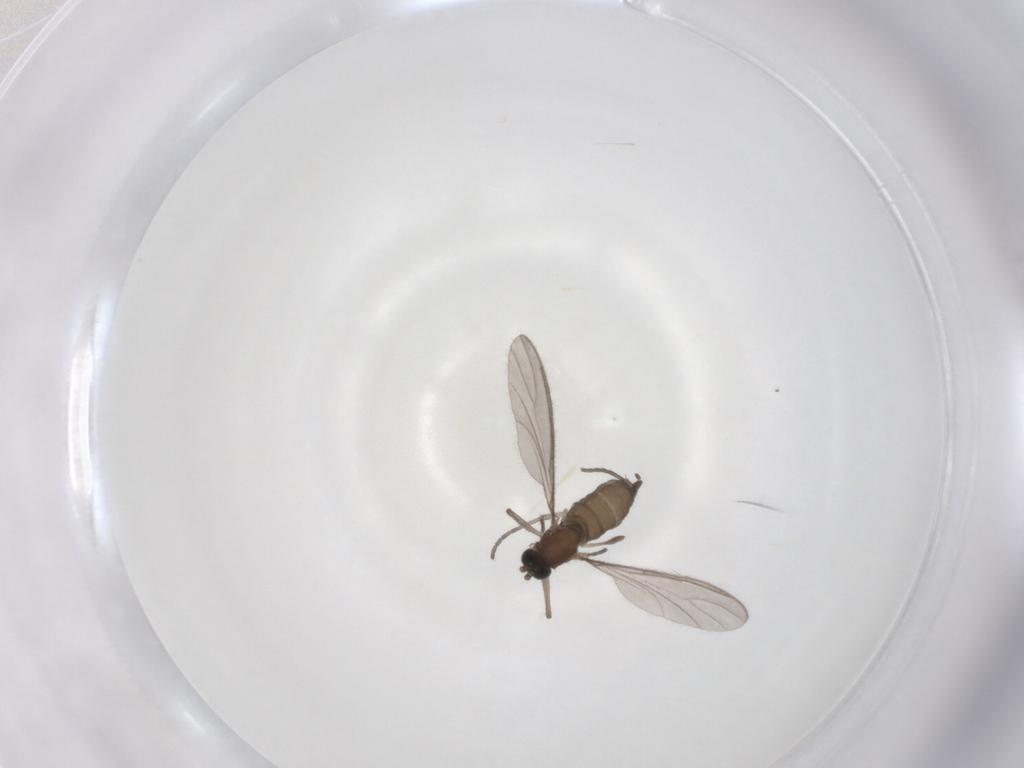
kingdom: Animalia
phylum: Arthropoda
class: Insecta
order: Diptera
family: Sciaridae
